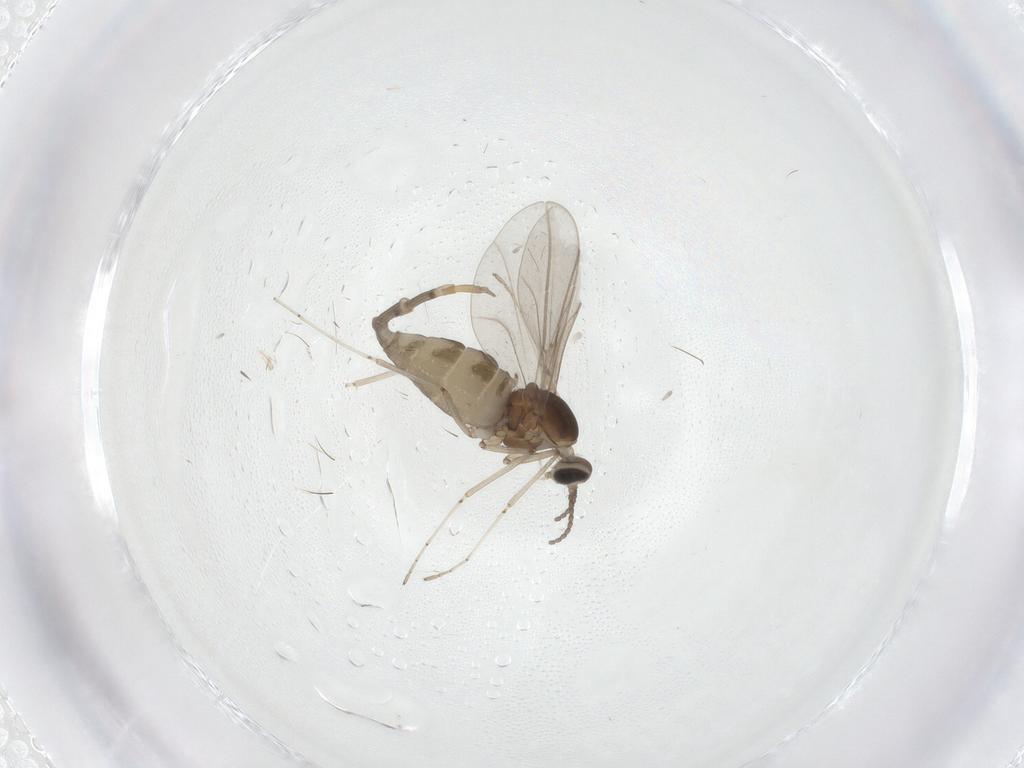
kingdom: Animalia
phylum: Arthropoda
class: Insecta
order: Diptera
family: Cecidomyiidae
